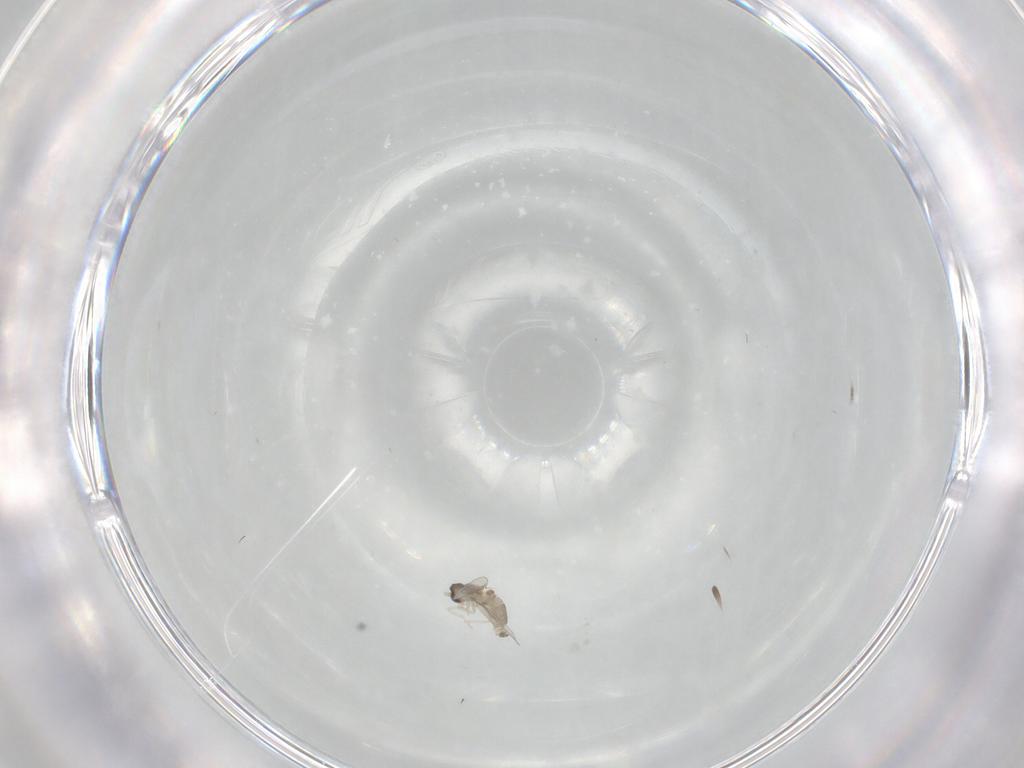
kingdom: Animalia
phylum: Arthropoda
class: Insecta
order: Diptera
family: Cecidomyiidae
